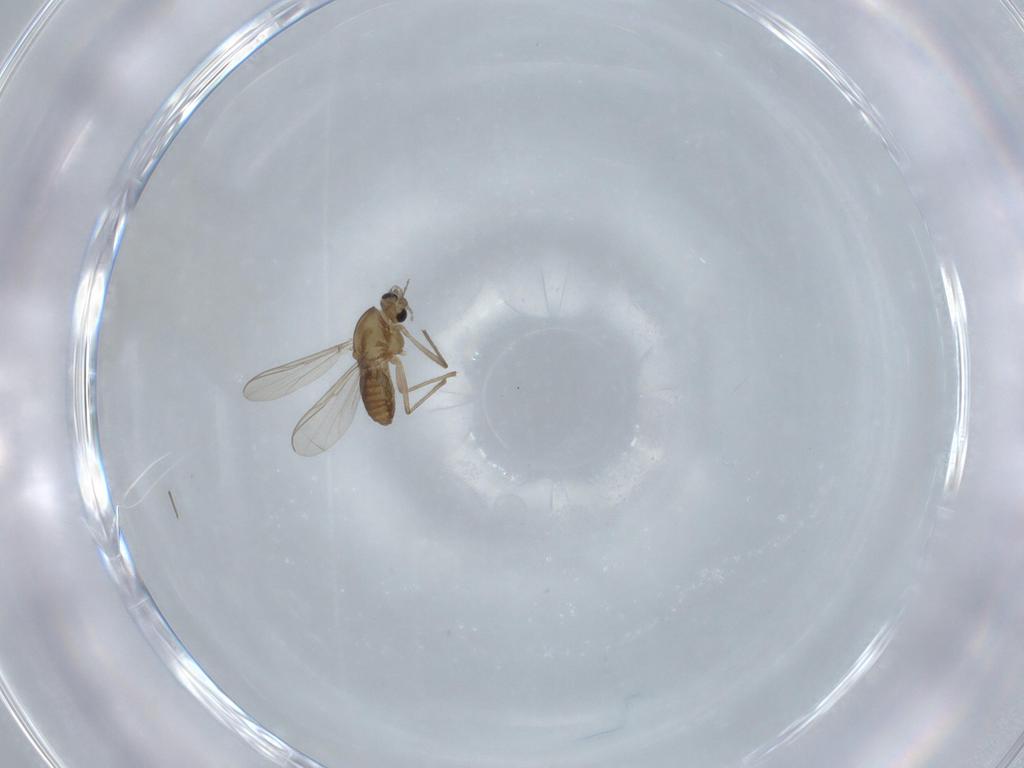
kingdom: Animalia
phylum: Arthropoda
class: Insecta
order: Diptera
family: Chironomidae
